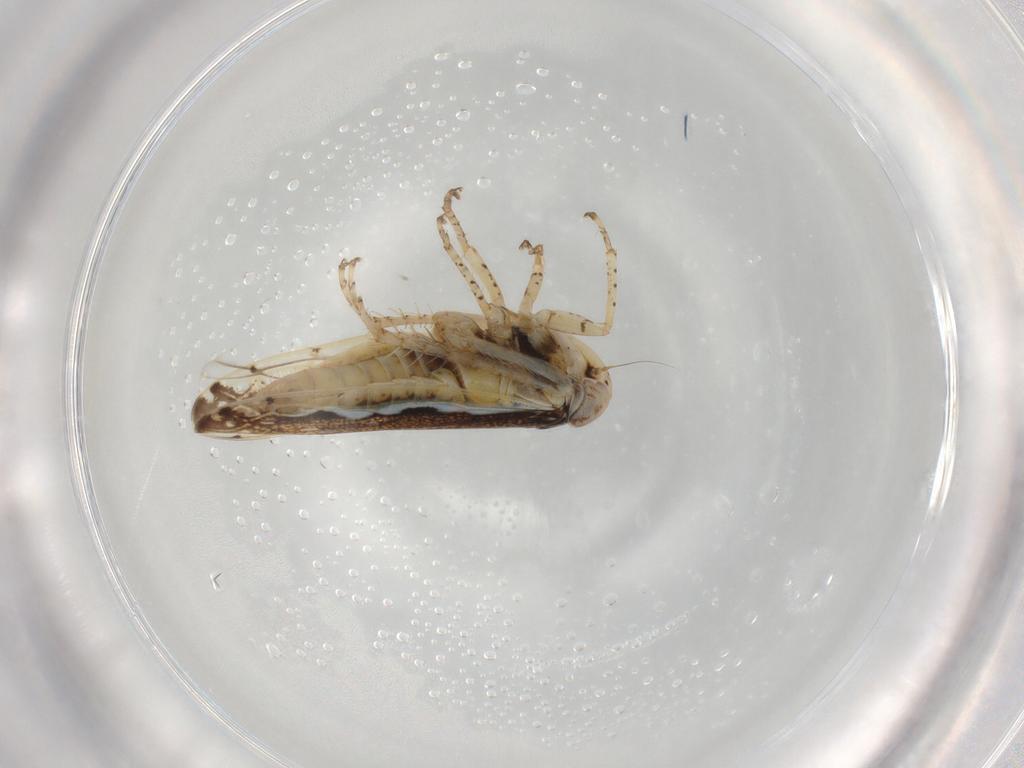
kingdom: Animalia
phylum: Arthropoda
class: Insecta
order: Hemiptera
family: Cicadellidae
